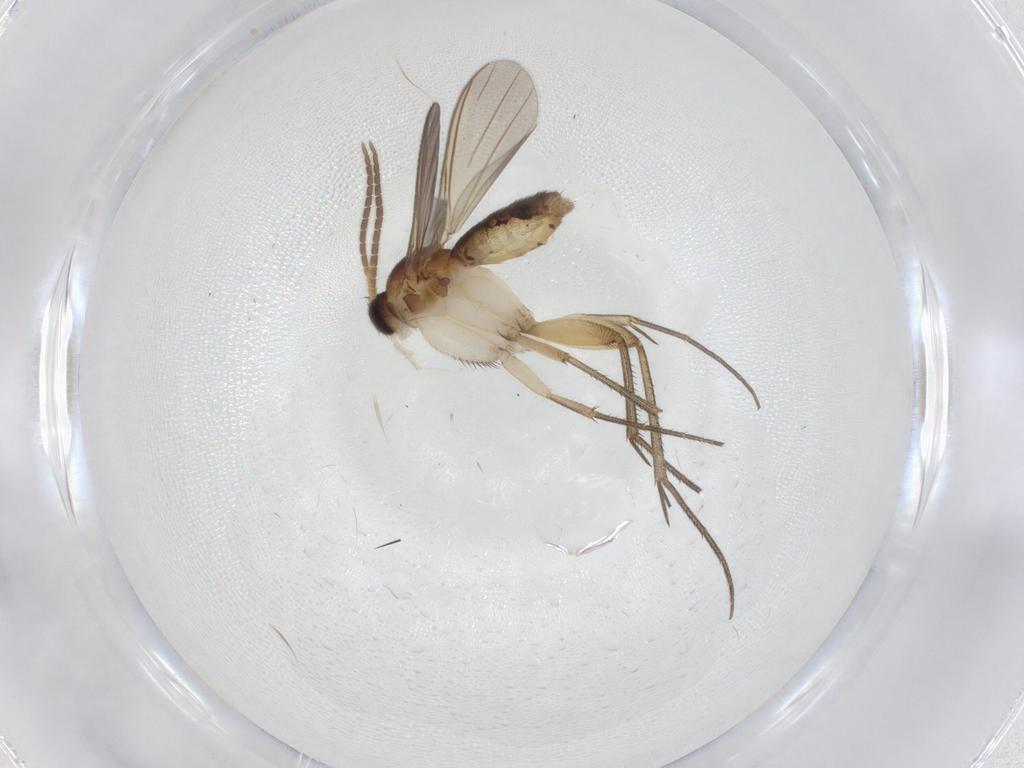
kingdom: Animalia
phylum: Arthropoda
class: Insecta
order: Diptera
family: Mycetophilidae
